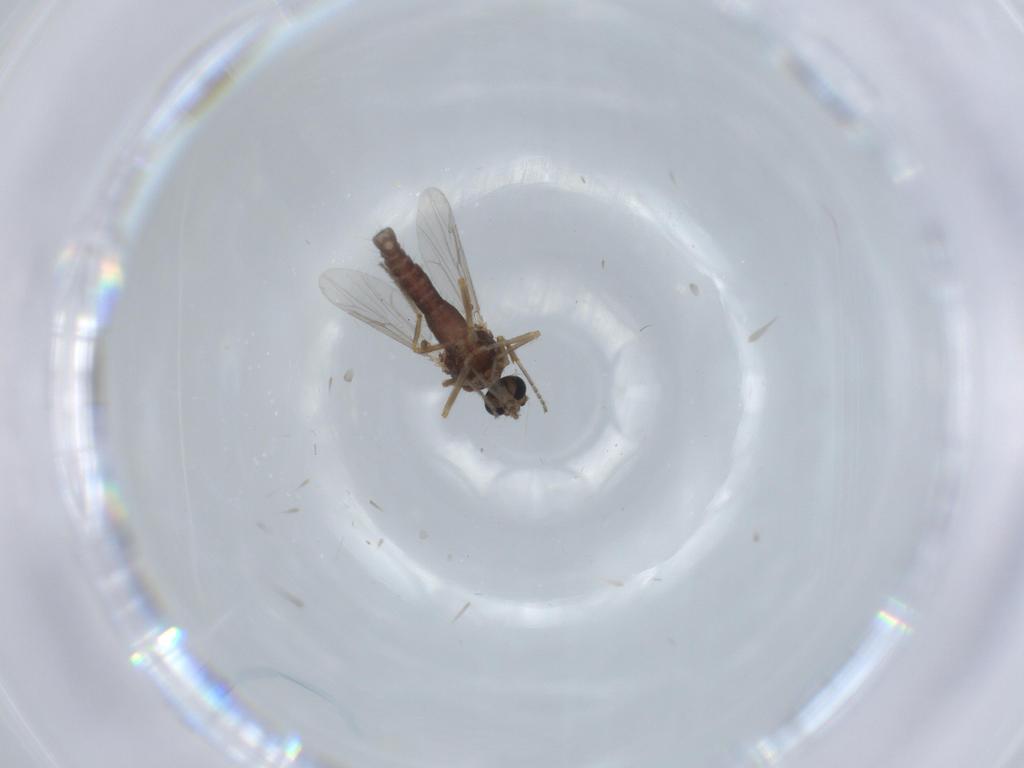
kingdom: Animalia
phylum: Arthropoda
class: Insecta
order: Diptera
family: Ceratopogonidae
